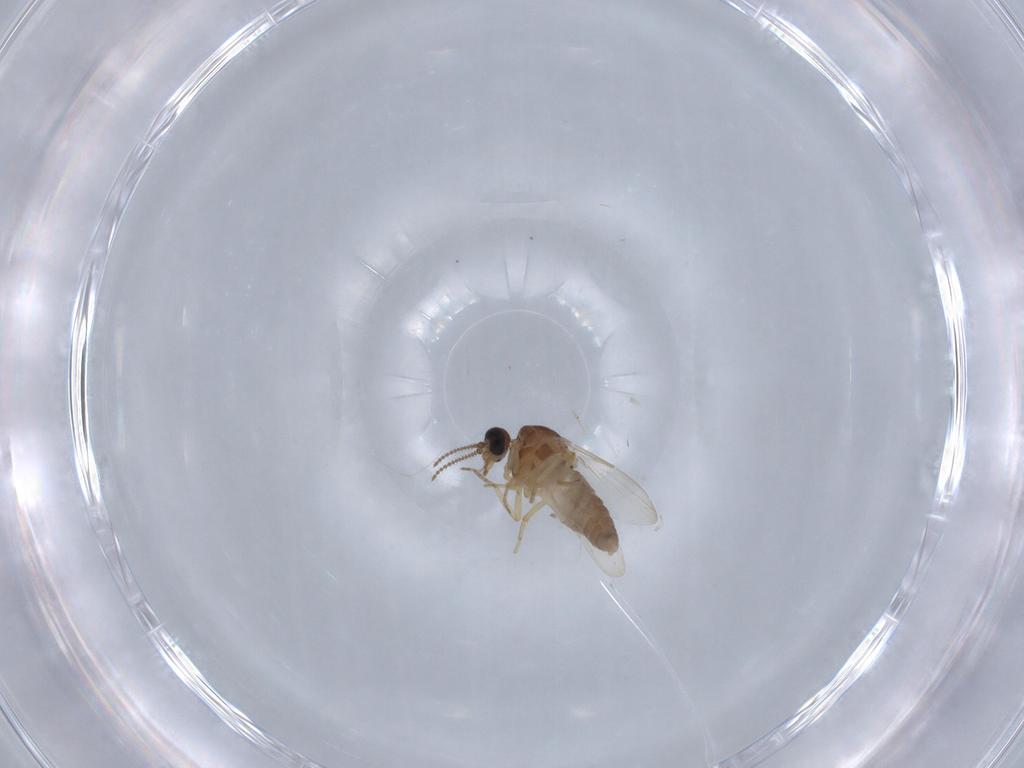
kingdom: Animalia
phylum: Arthropoda
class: Insecta
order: Diptera
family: Ceratopogonidae
